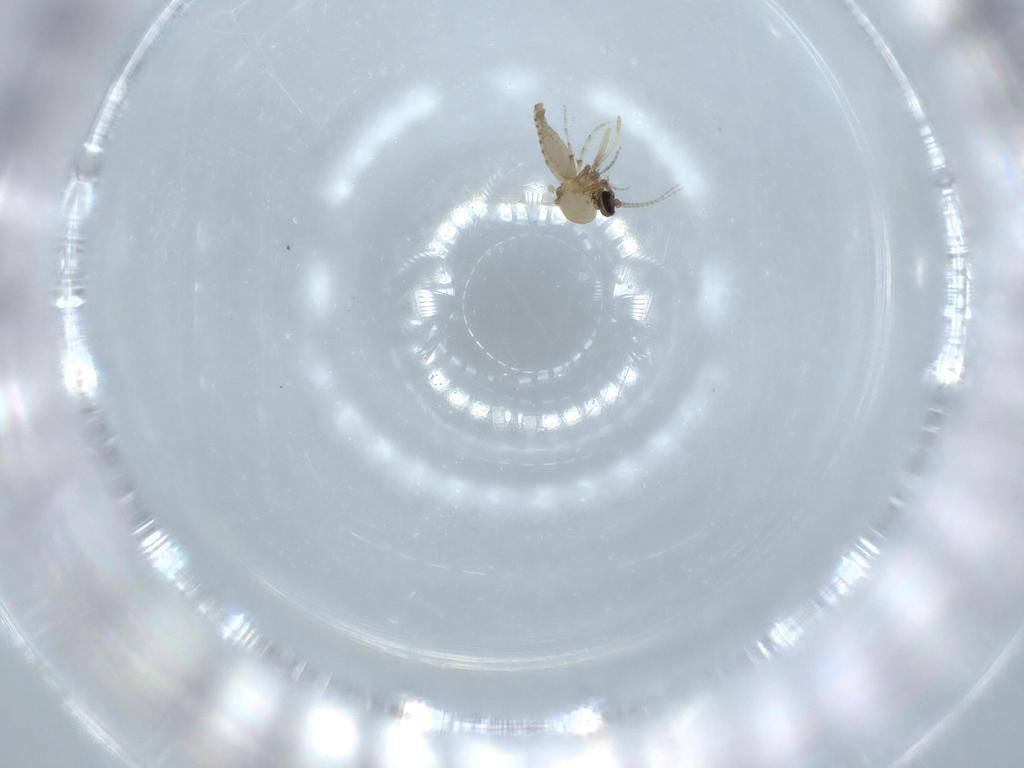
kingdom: Animalia
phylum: Arthropoda
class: Insecta
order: Diptera
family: Ceratopogonidae
